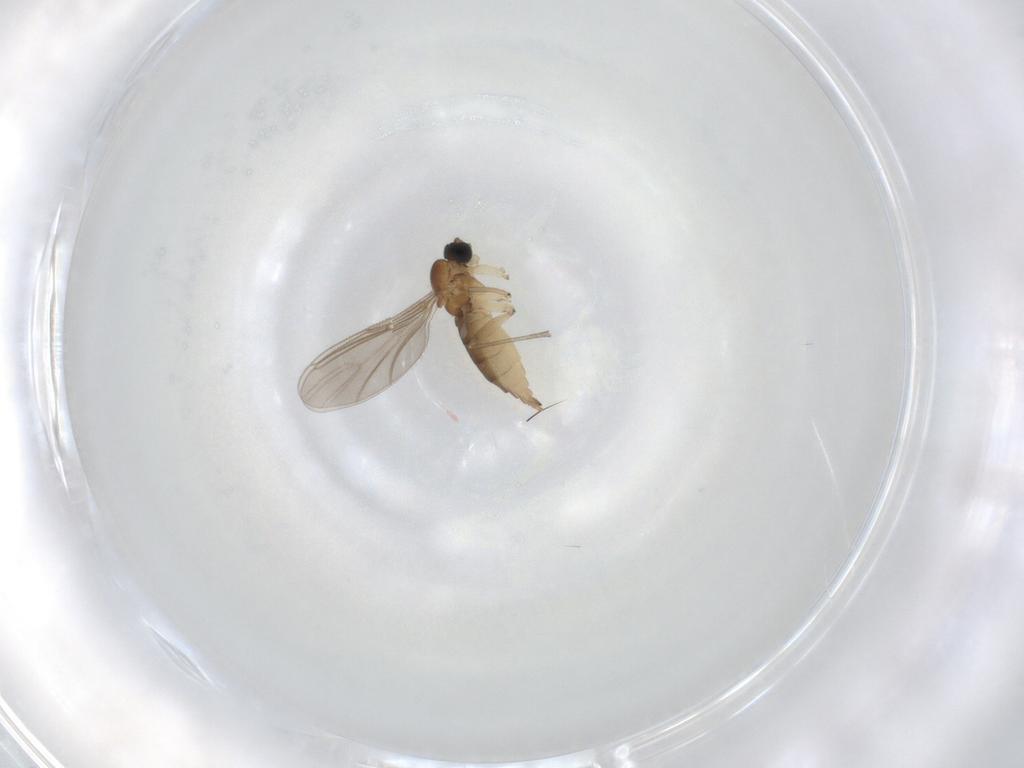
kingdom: Animalia
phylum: Arthropoda
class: Insecta
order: Diptera
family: Sciaridae
